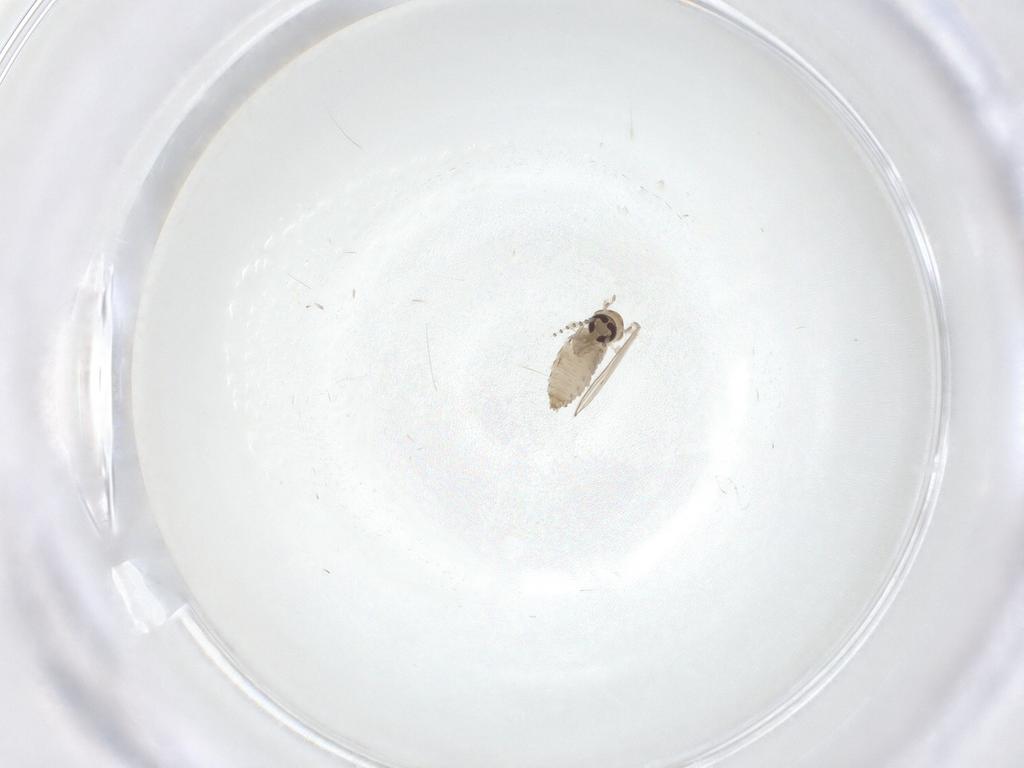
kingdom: Animalia
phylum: Arthropoda
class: Insecta
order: Diptera
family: Psychodidae
